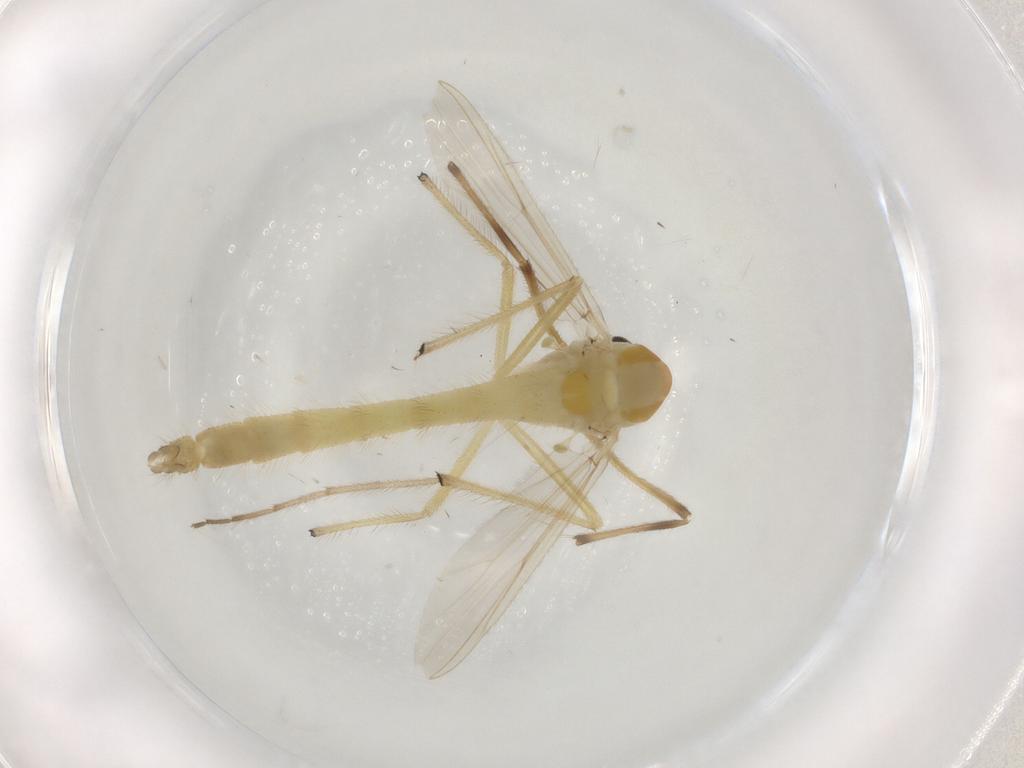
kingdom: Animalia
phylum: Arthropoda
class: Insecta
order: Diptera
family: Chironomidae
